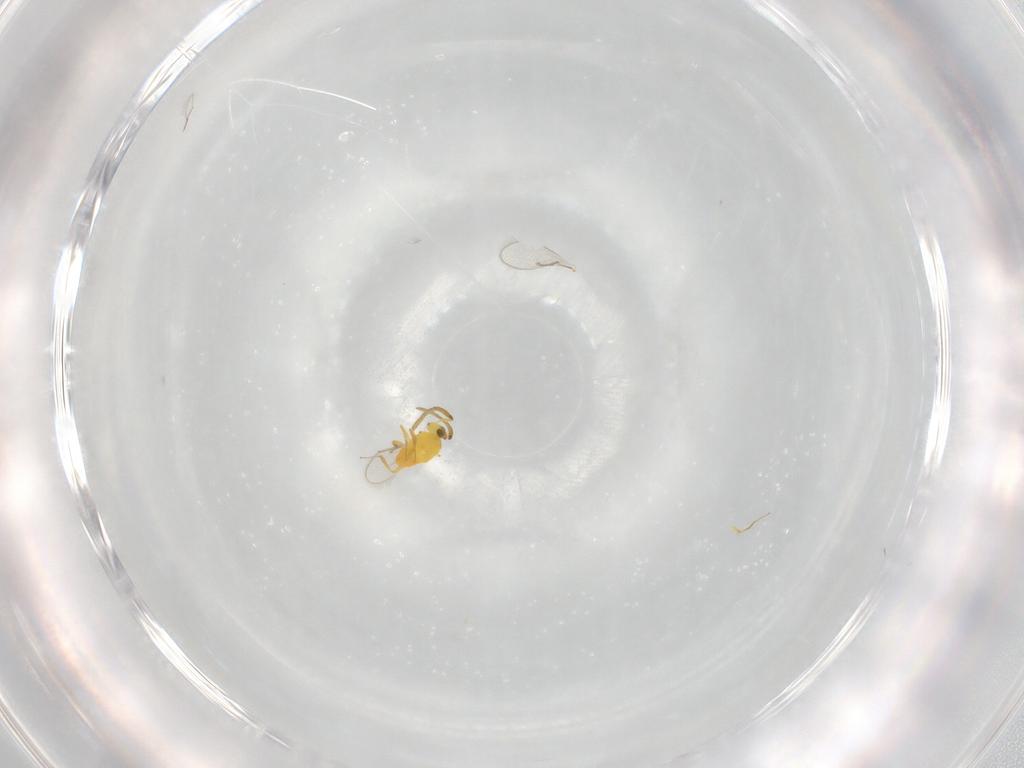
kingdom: Animalia
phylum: Arthropoda
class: Insecta
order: Hymenoptera
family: Aphelinidae
